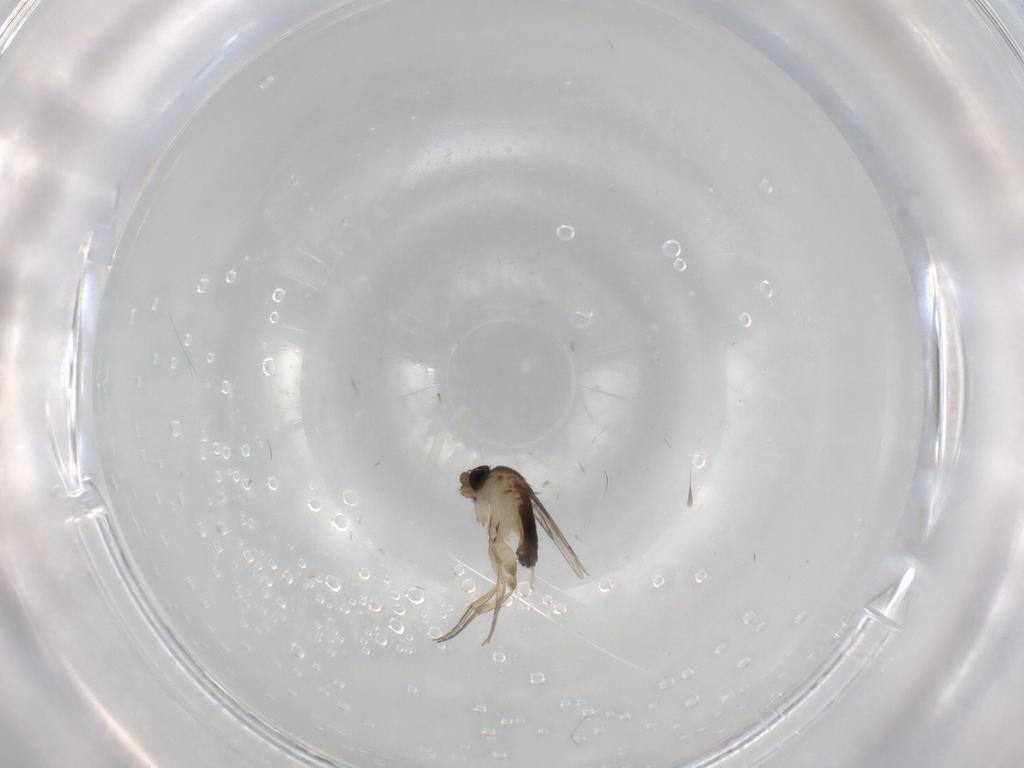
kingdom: Animalia
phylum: Arthropoda
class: Insecta
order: Diptera
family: Phoridae
